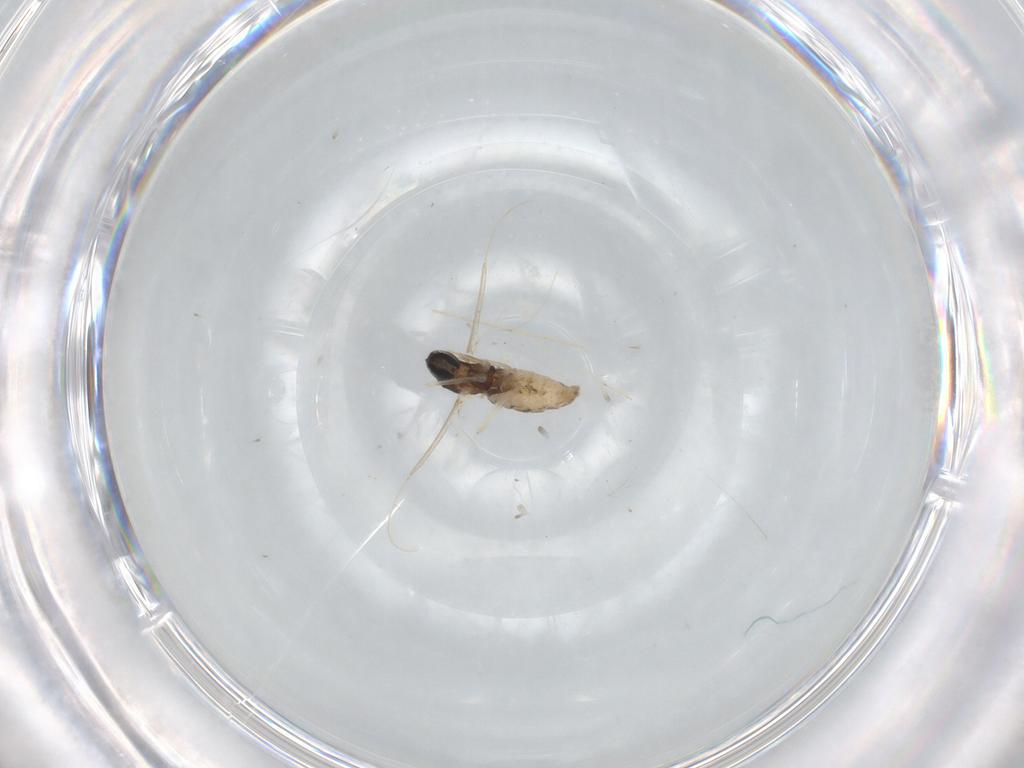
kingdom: Animalia
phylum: Arthropoda
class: Insecta
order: Diptera
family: Cecidomyiidae
